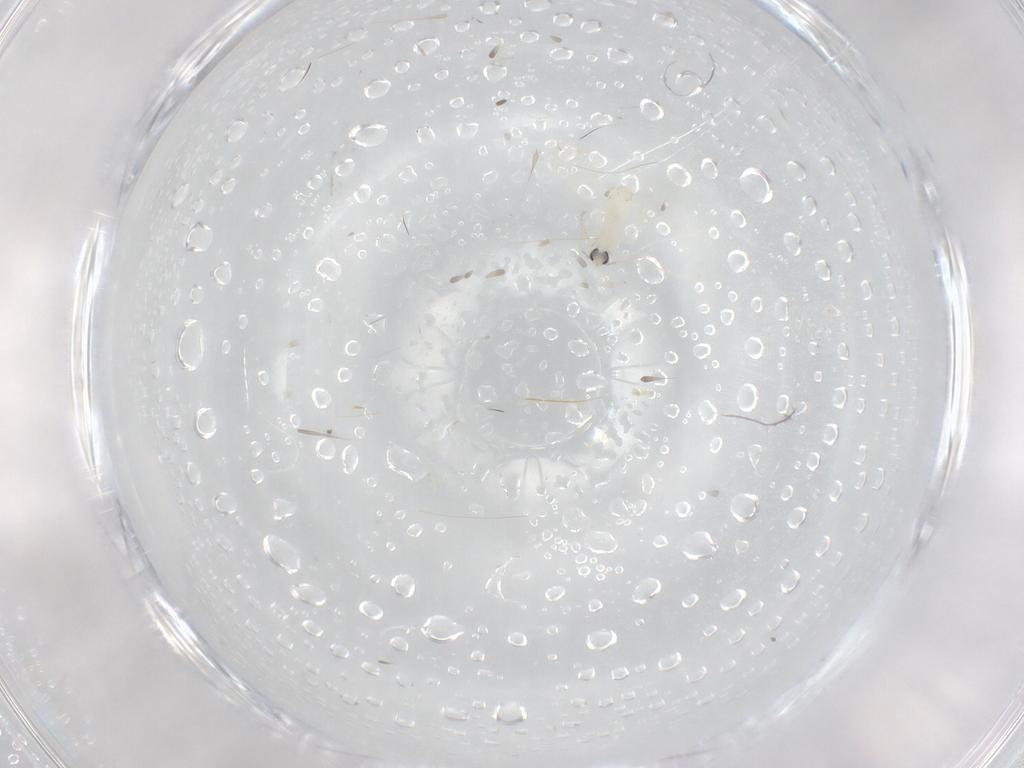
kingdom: Animalia
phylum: Arthropoda
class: Insecta
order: Diptera
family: Cecidomyiidae
